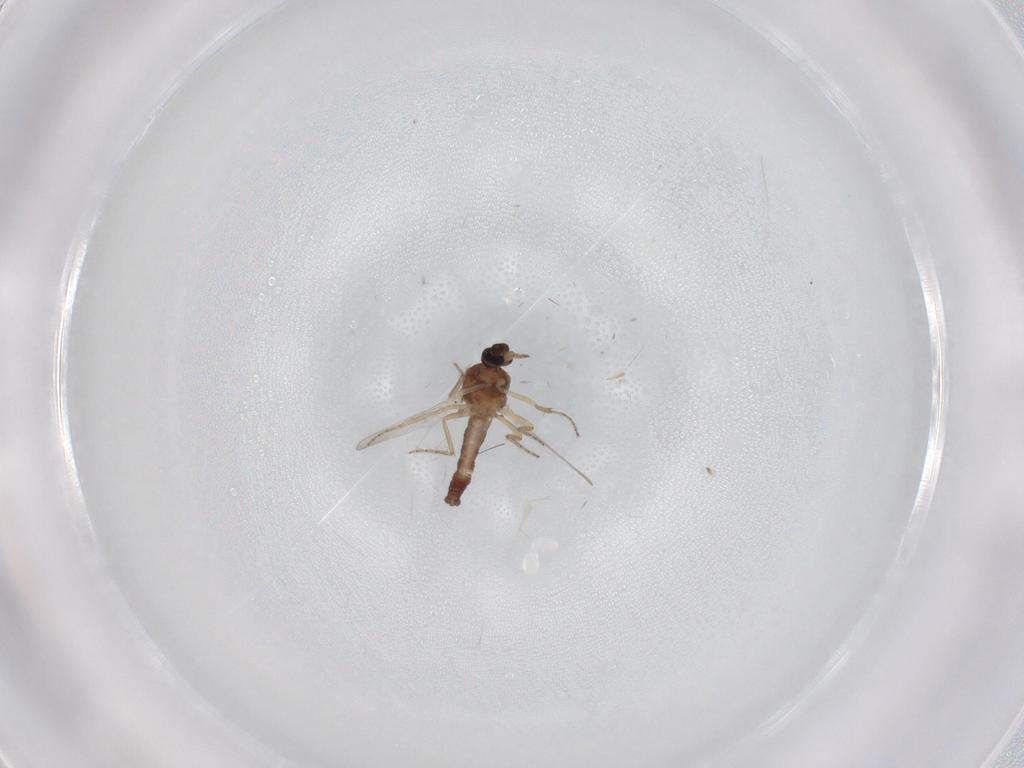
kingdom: Animalia
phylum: Arthropoda
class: Insecta
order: Diptera
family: Ceratopogonidae
